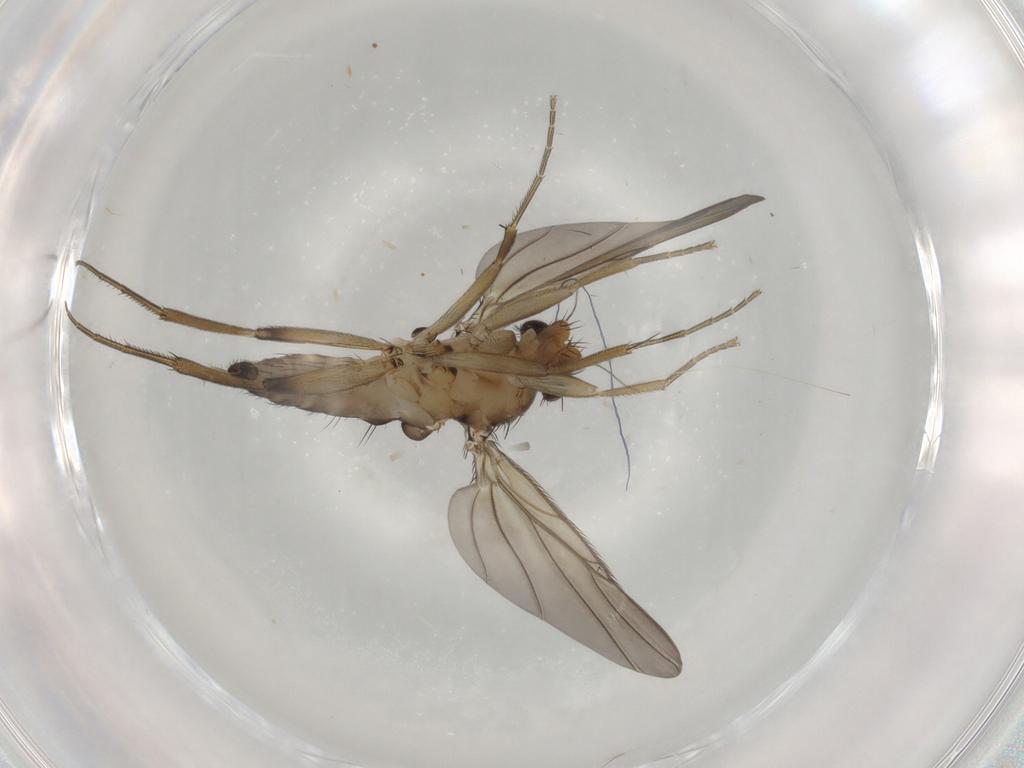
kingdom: Animalia
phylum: Arthropoda
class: Insecta
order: Diptera
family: Phoridae
